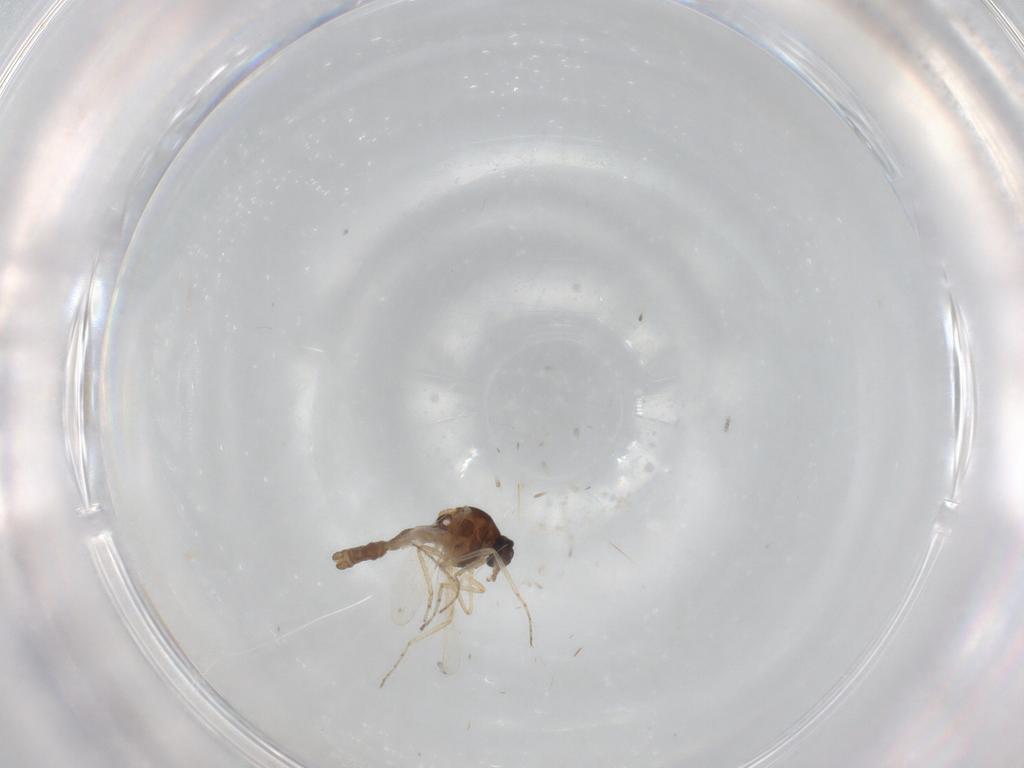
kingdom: Animalia
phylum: Arthropoda
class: Insecta
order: Diptera
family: Ceratopogonidae
